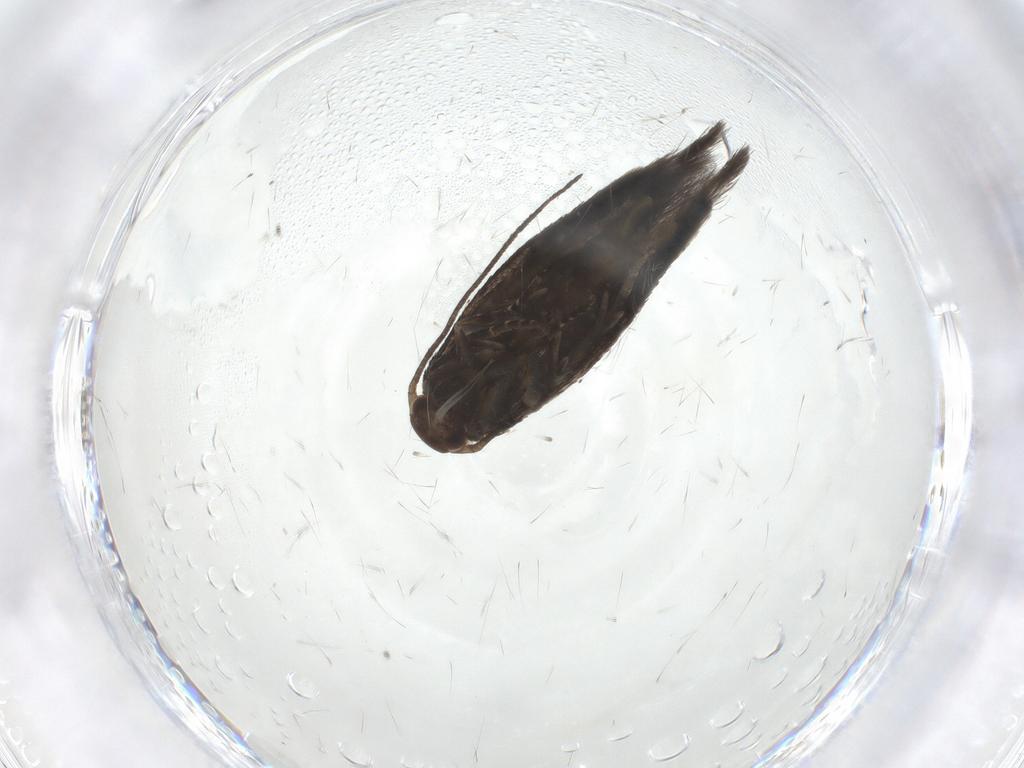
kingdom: Animalia
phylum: Arthropoda
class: Insecta
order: Lepidoptera
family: Elachistidae
